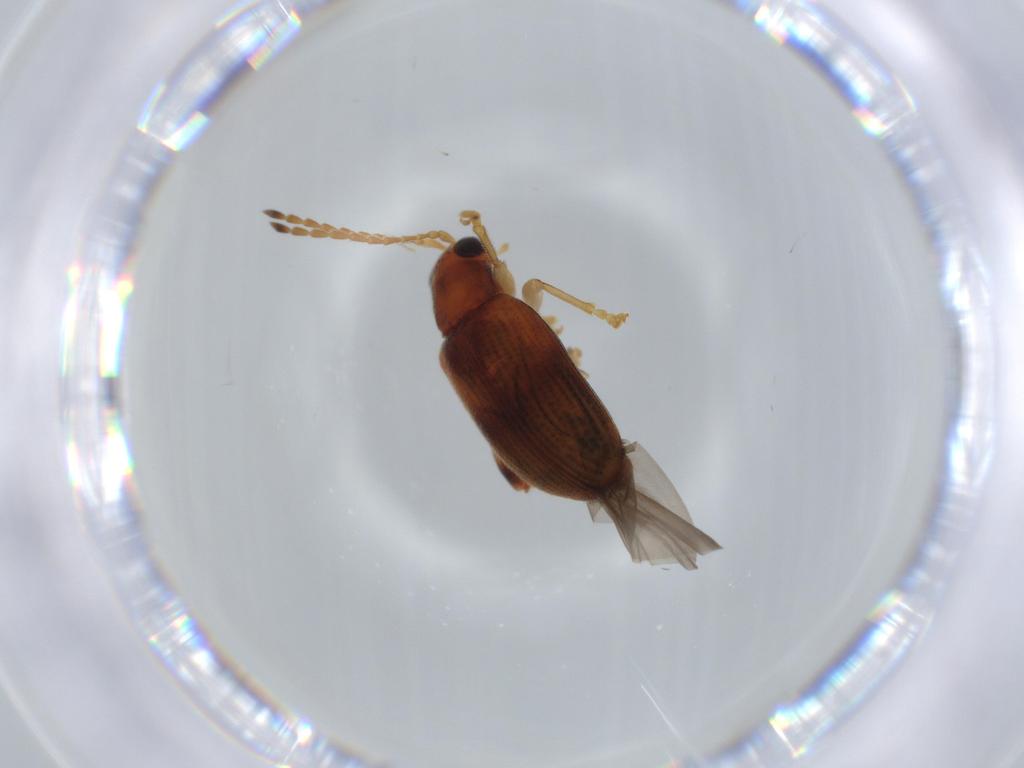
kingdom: Animalia
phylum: Arthropoda
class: Insecta
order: Coleoptera
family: Chrysomelidae
